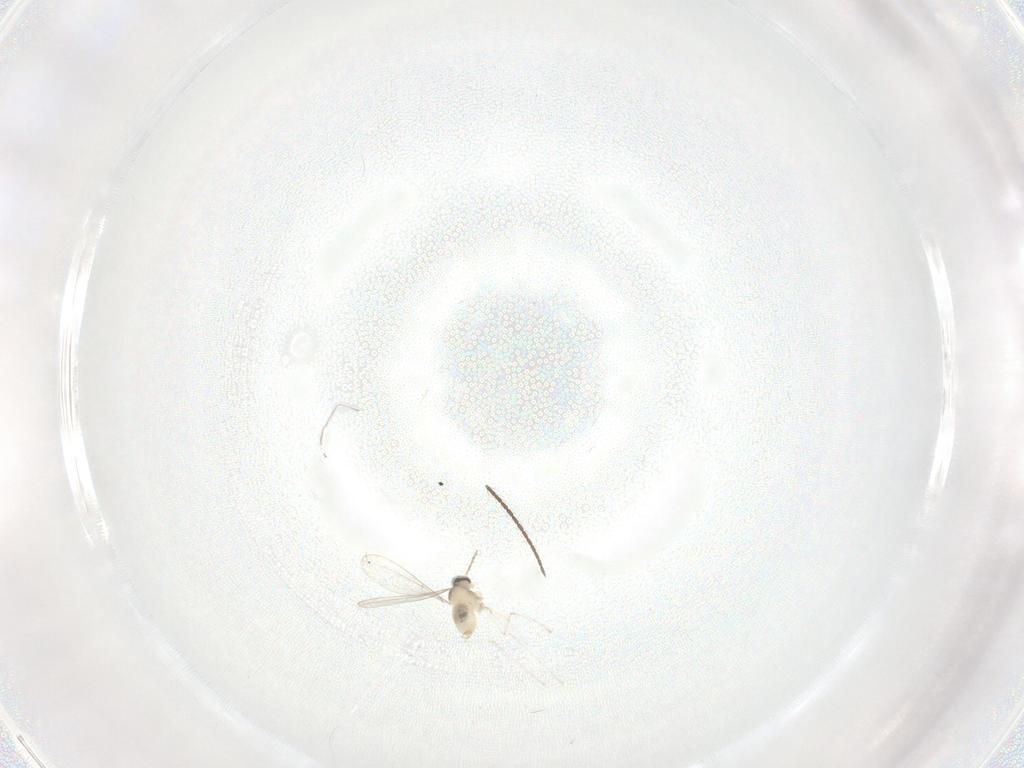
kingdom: Animalia
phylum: Arthropoda
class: Insecta
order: Diptera
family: Cecidomyiidae
